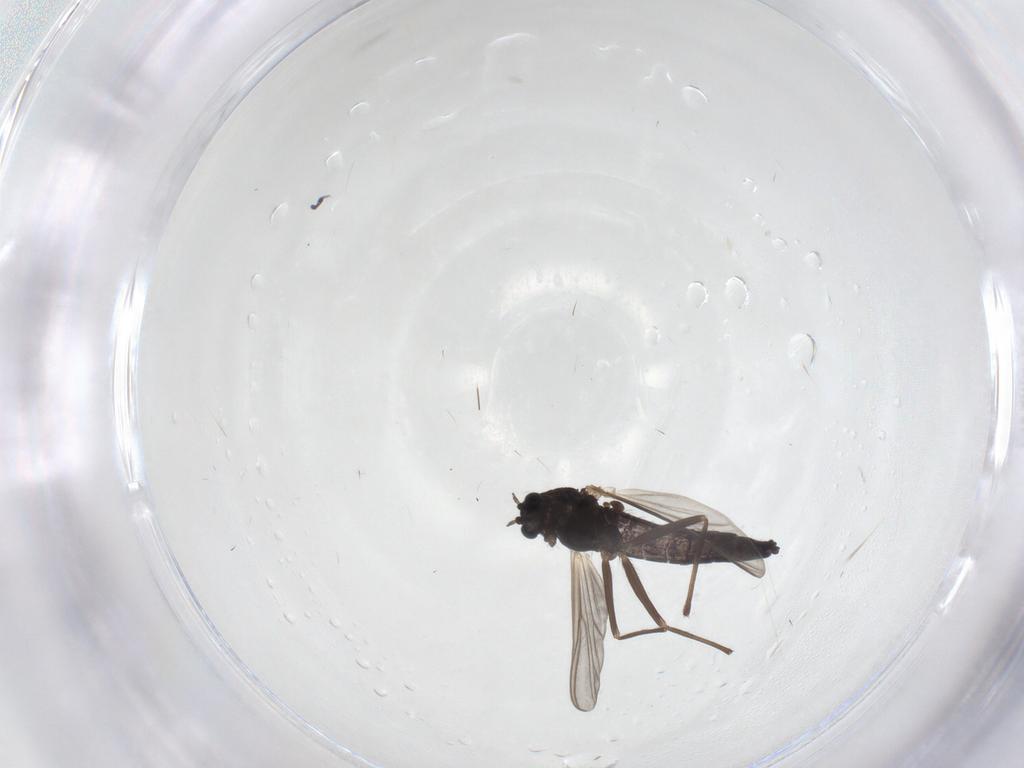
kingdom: Animalia
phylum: Arthropoda
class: Insecta
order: Diptera
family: Chironomidae
